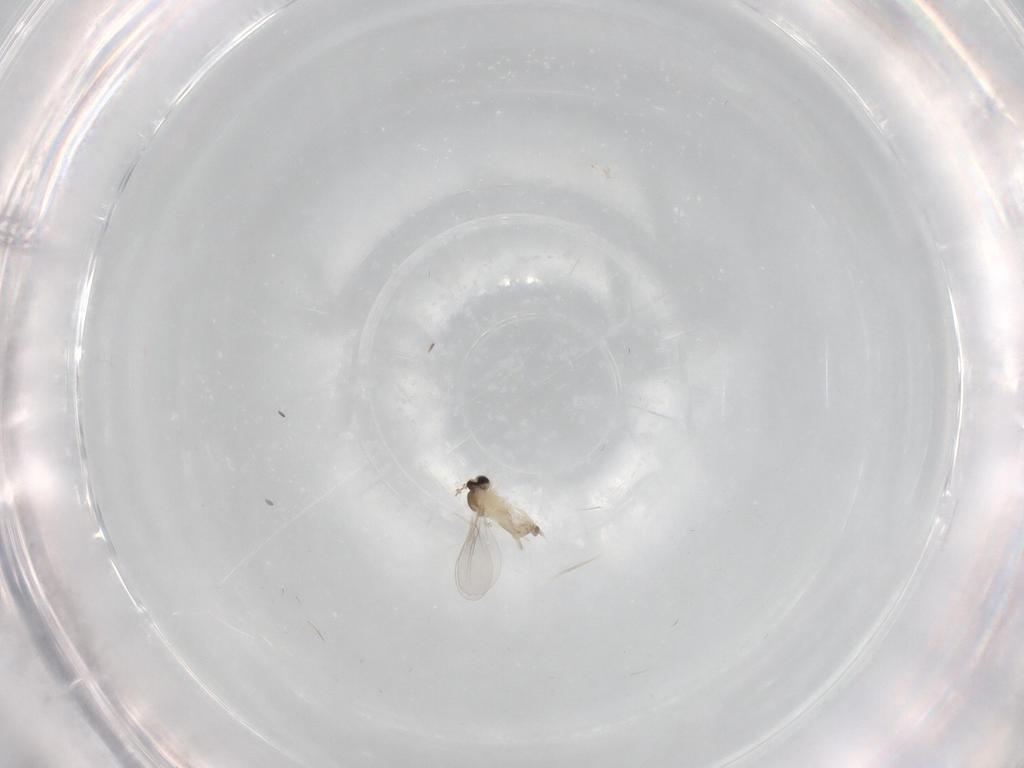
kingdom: Animalia
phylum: Arthropoda
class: Insecta
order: Diptera
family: Cecidomyiidae
